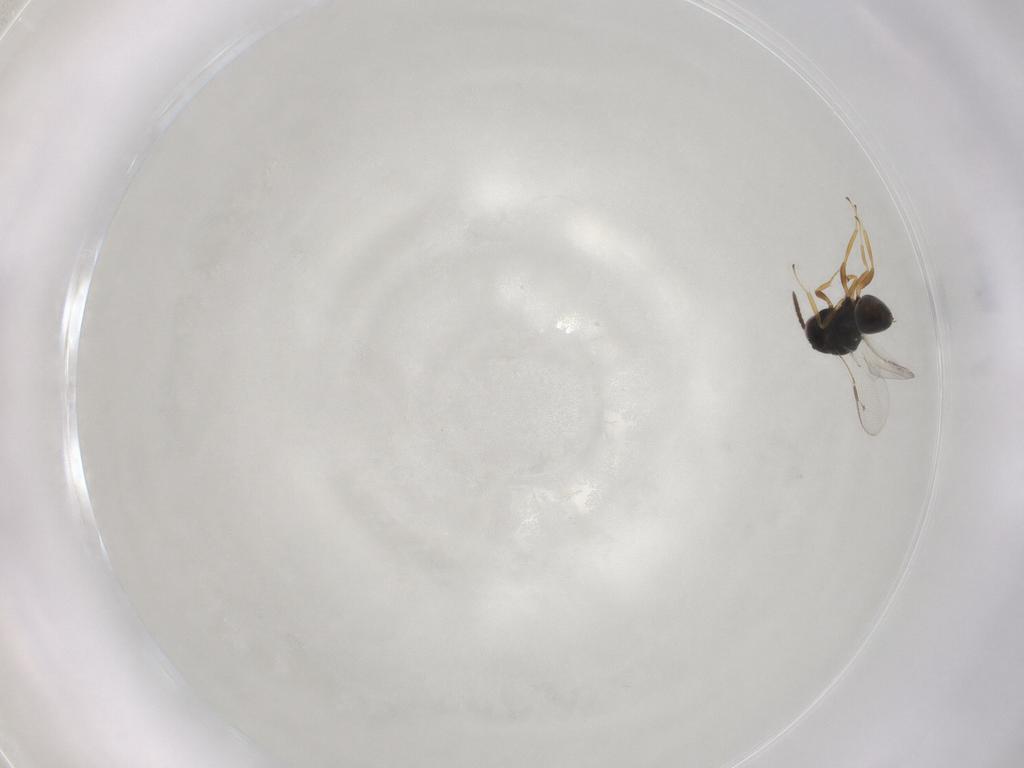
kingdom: Animalia
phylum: Arthropoda
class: Insecta
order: Hymenoptera
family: Pteromalidae
